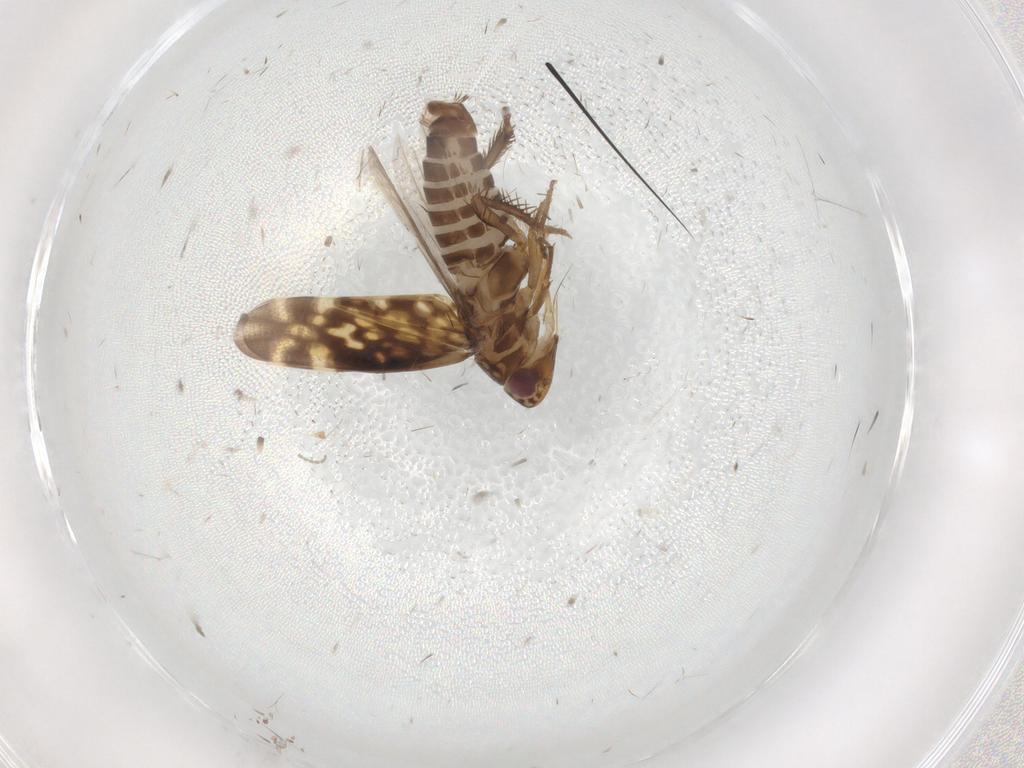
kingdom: Animalia
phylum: Arthropoda
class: Insecta
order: Hemiptera
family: Cicadellidae
